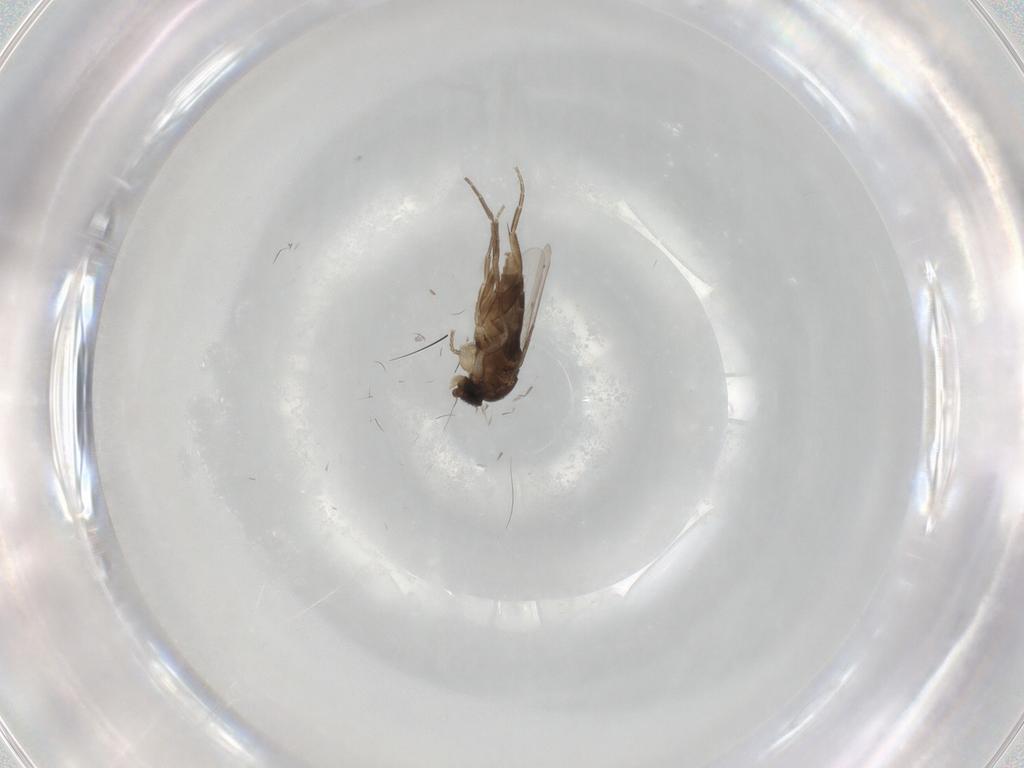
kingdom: Animalia
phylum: Arthropoda
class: Insecta
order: Diptera
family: Phoridae
